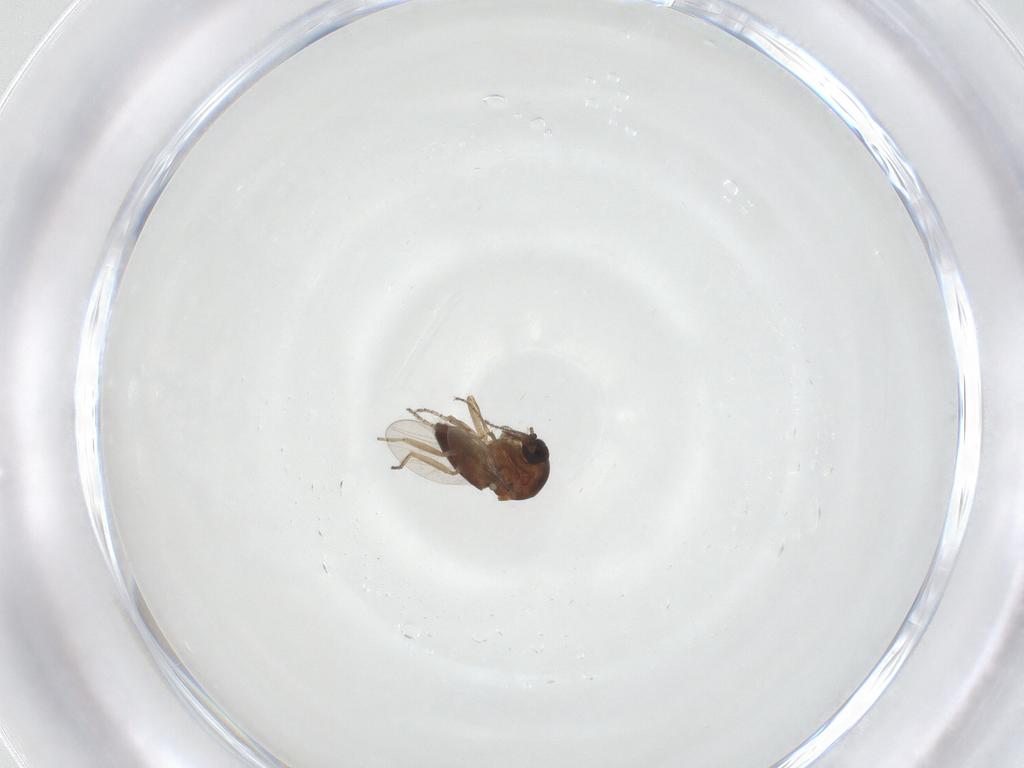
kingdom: Animalia
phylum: Arthropoda
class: Insecta
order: Diptera
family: Ceratopogonidae
